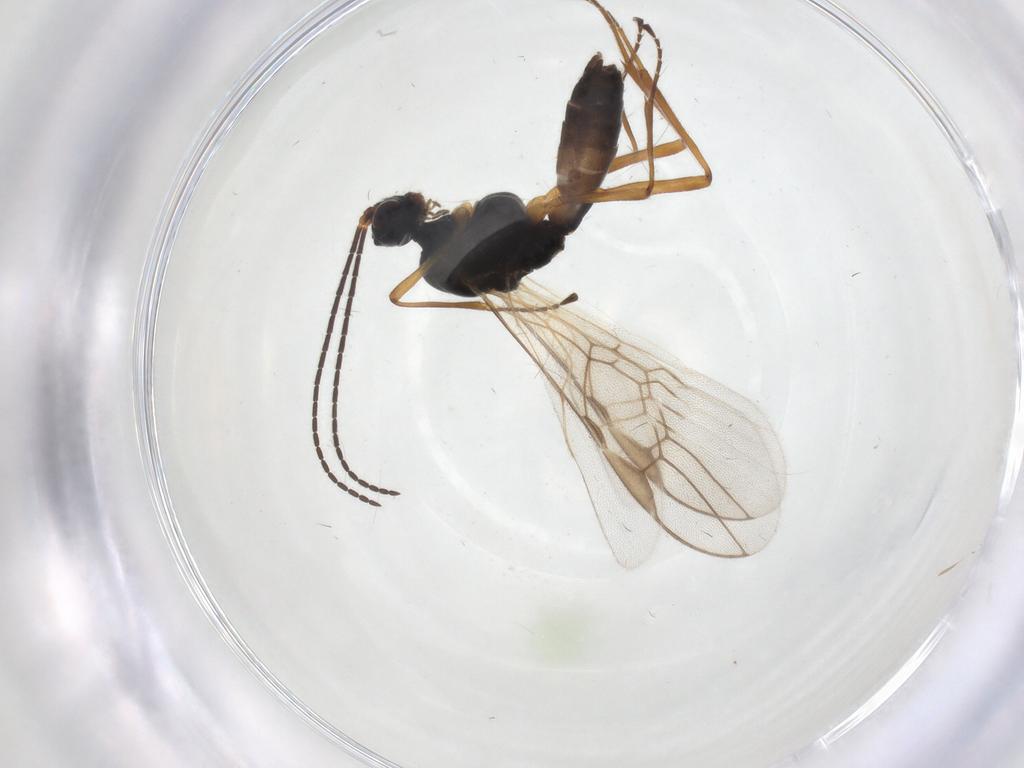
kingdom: Animalia
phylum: Arthropoda
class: Insecta
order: Hymenoptera
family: Braconidae
